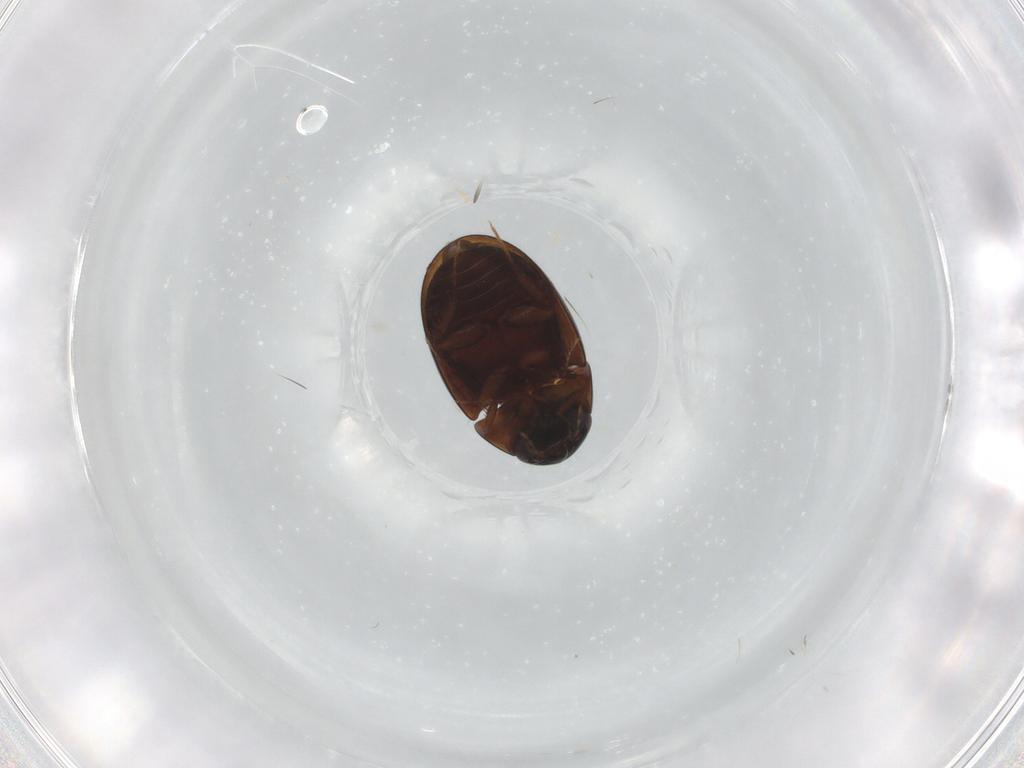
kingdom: Animalia
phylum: Arthropoda
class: Insecta
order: Coleoptera
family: Hydrophilidae
